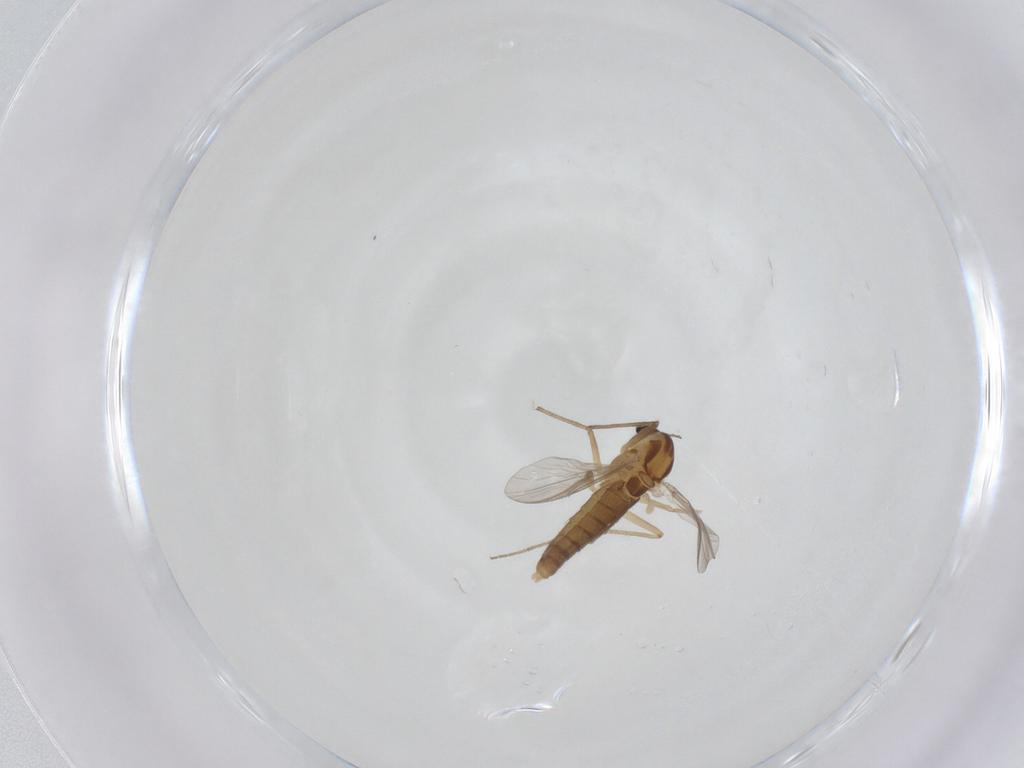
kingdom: Animalia
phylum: Arthropoda
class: Insecta
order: Diptera
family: Chironomidae
